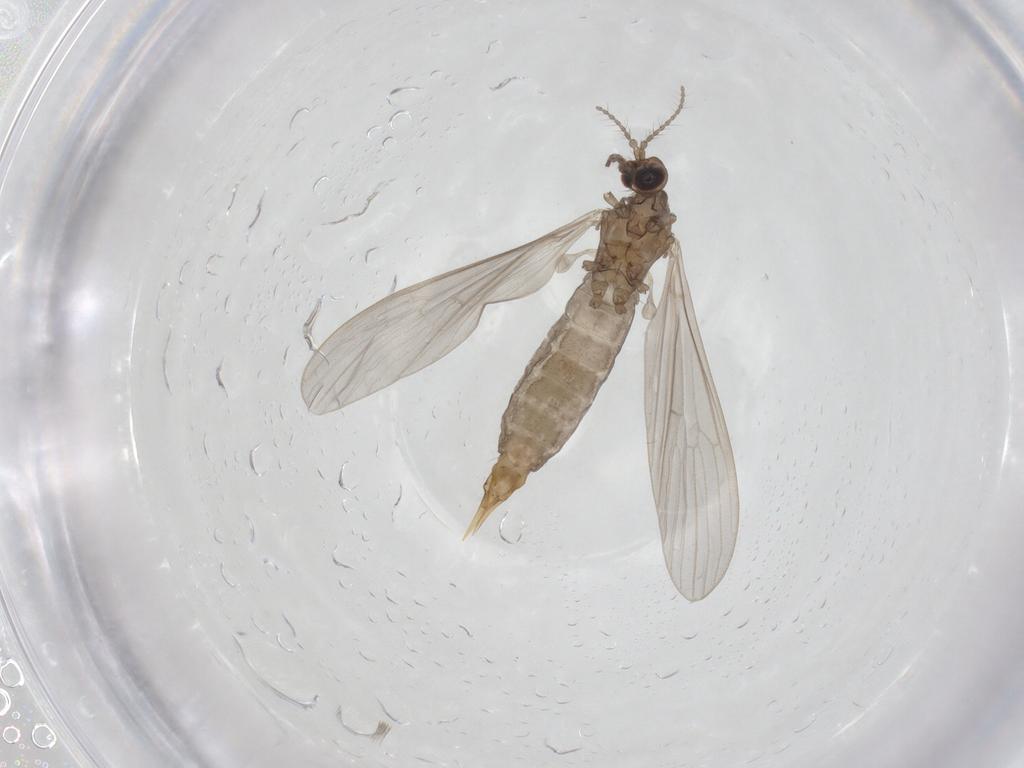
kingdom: Animalia
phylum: Arthropoda
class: Insecta
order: Diptera
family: Limoniidae
